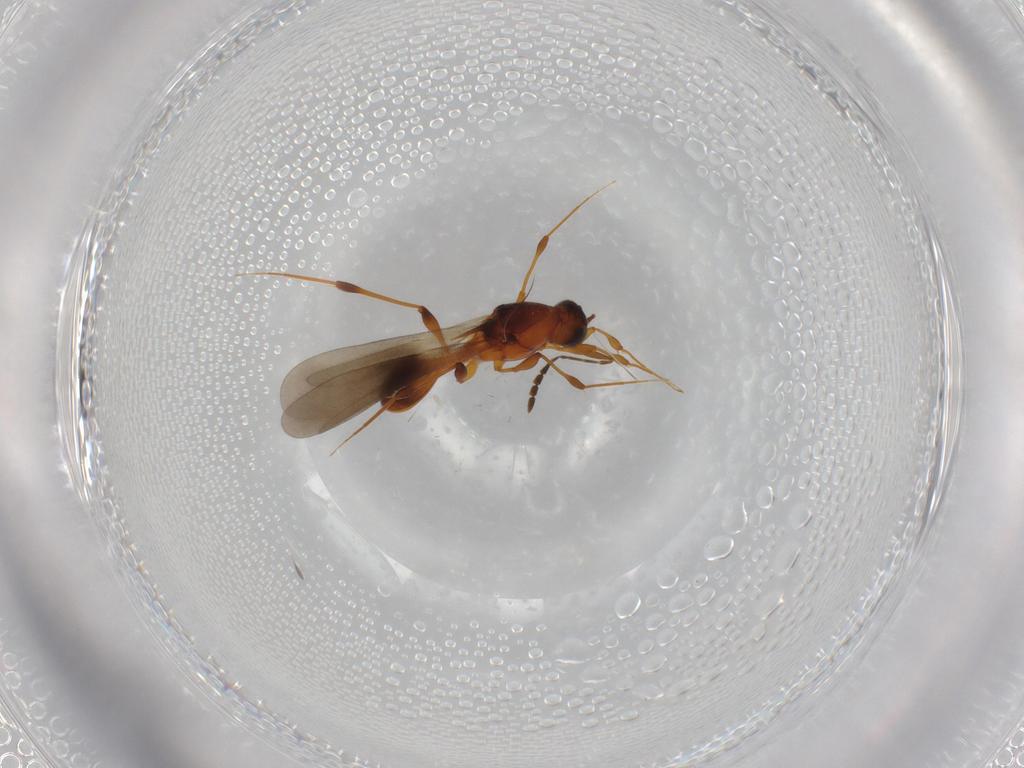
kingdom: Animalia
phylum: Arthropoda
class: Insecta
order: Hymenoptera
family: Platygastridae
